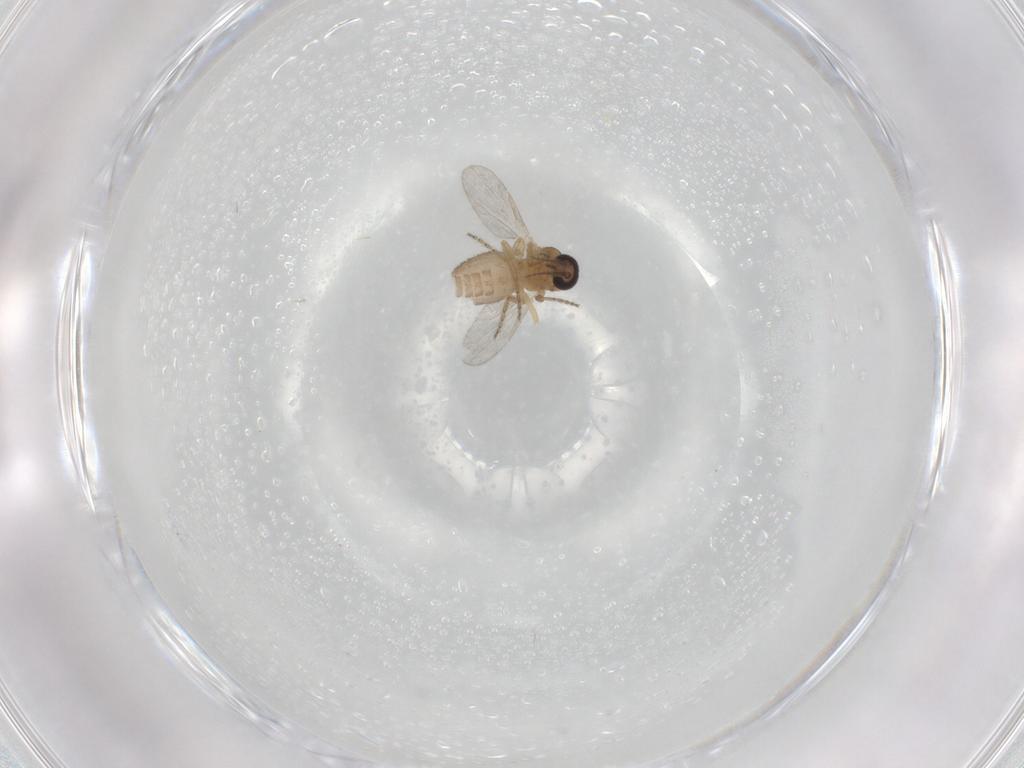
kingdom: Animalia
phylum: Arthropoda
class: Insecta
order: Diptera
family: Ceratopogonidae
